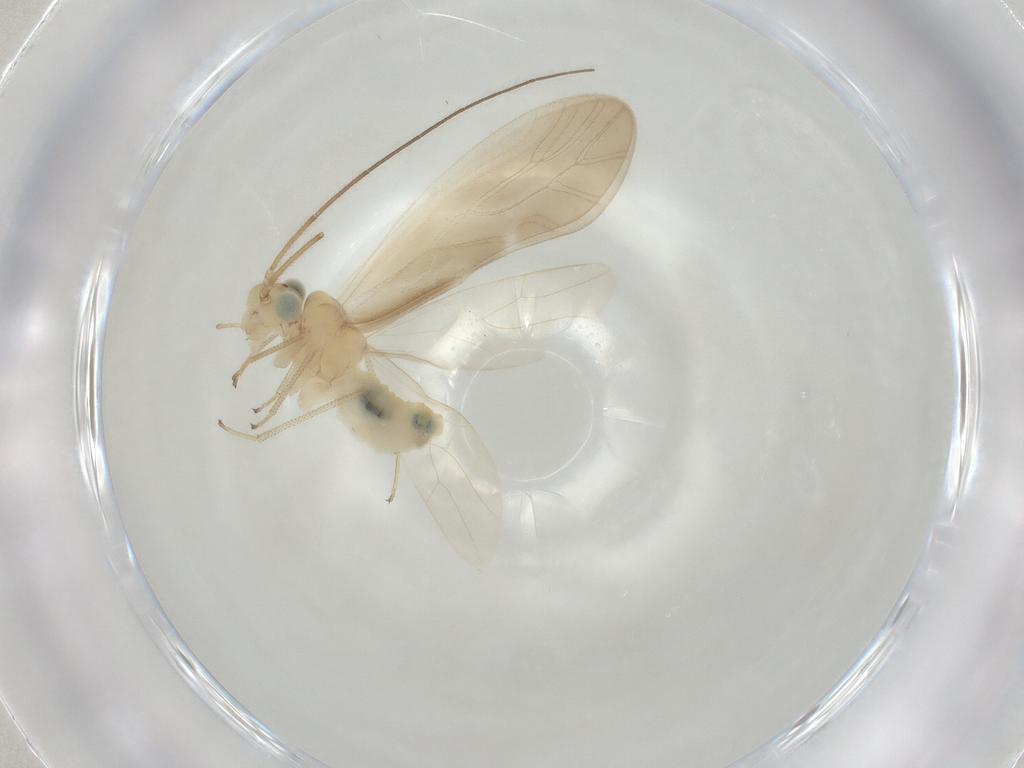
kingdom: Animalia
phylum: Arthropoda
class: Insecta
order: Psocodea
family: Caeciliusidae
